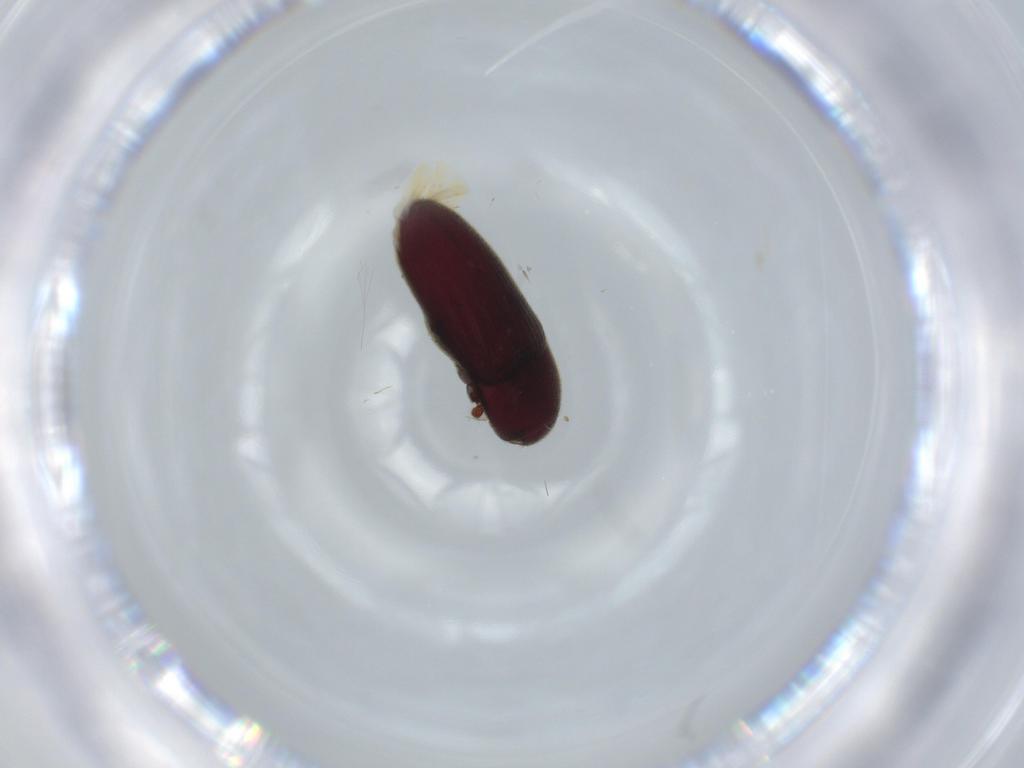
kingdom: Animalia
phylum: Arthropoda
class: Insecta
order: Coleoptera
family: Throscidae
